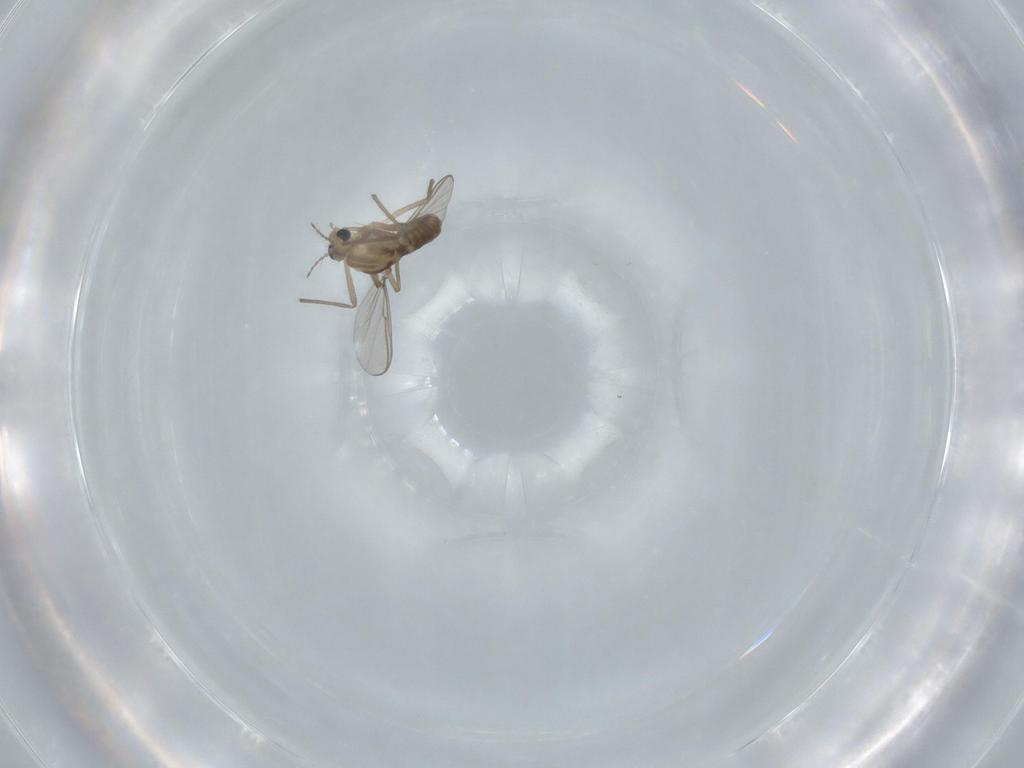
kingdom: Animalia
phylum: Arthropoda
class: Insecta
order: Diptera
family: Chironomidae
